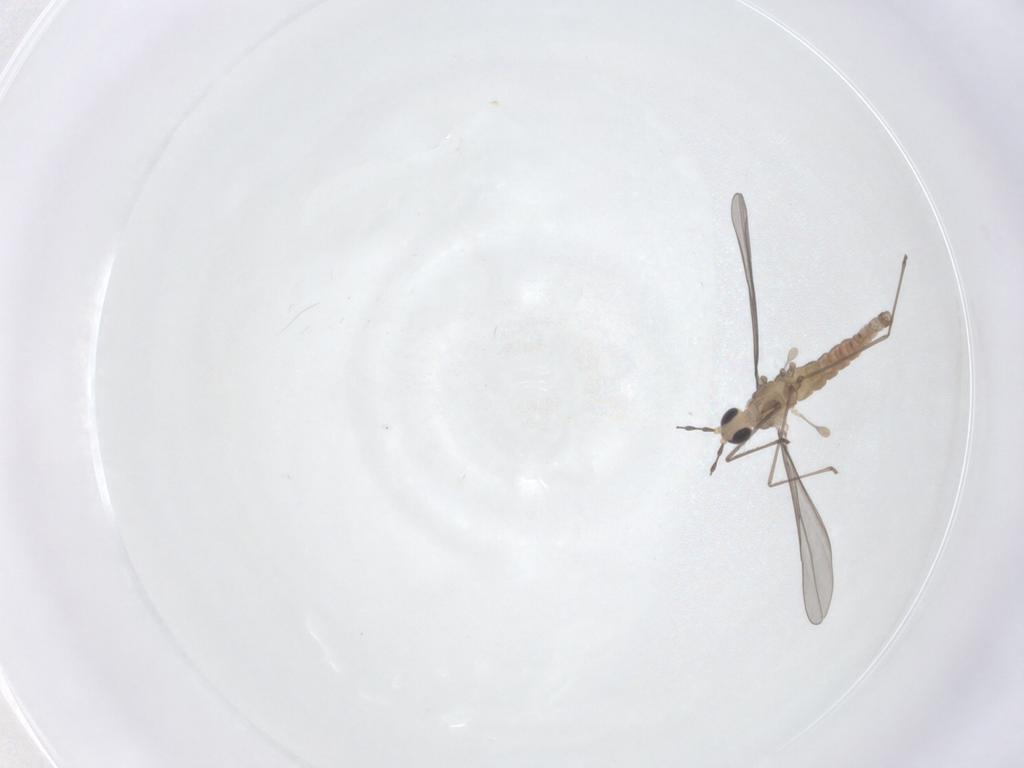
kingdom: Animalia
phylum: Arthropoda
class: Insecta
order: Diptera
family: Cecidomyiidae
